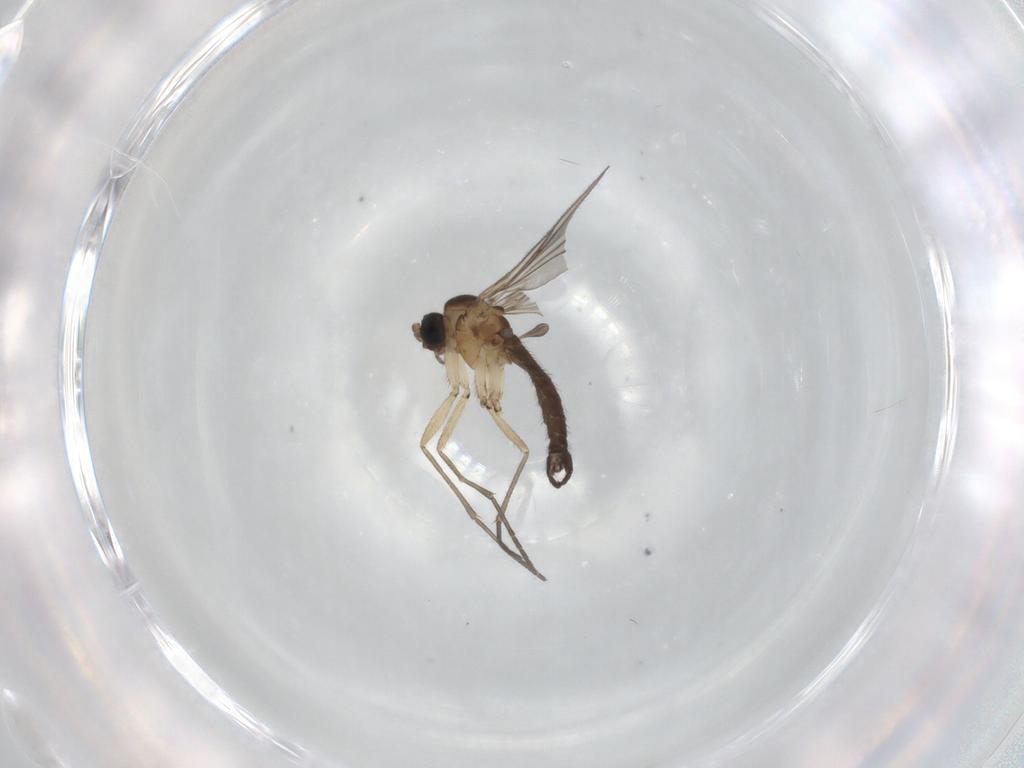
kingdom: Animalia
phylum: Arthropoda
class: Insecta
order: Diptera
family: Sciaridae
